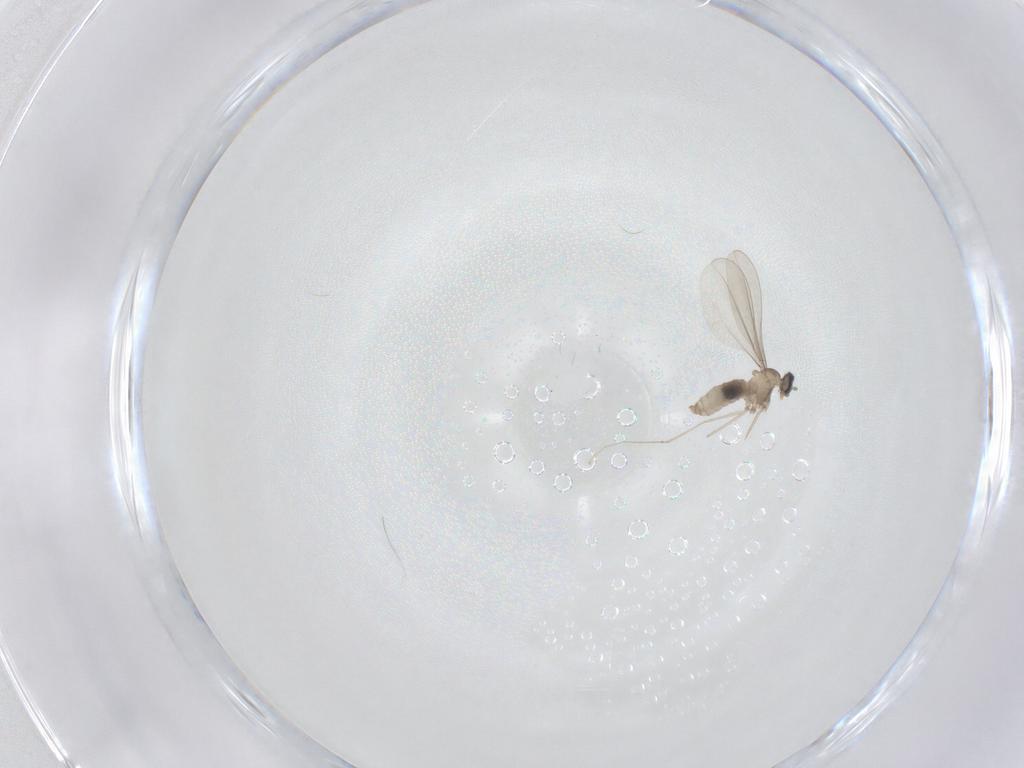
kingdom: Animalia
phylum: Arthropoda
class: Insecta
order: Diptera
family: Cecidomyiidae
